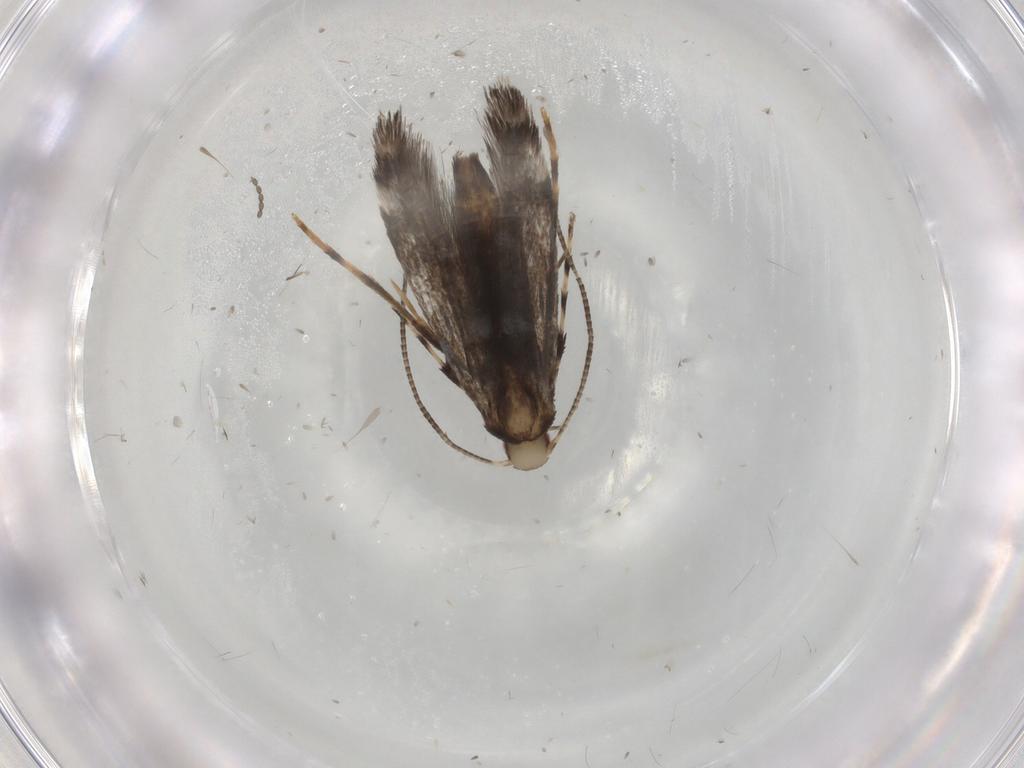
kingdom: Animalia
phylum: Arthropoda
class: Insecta
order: Lepidoptera
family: Gracillariidae
